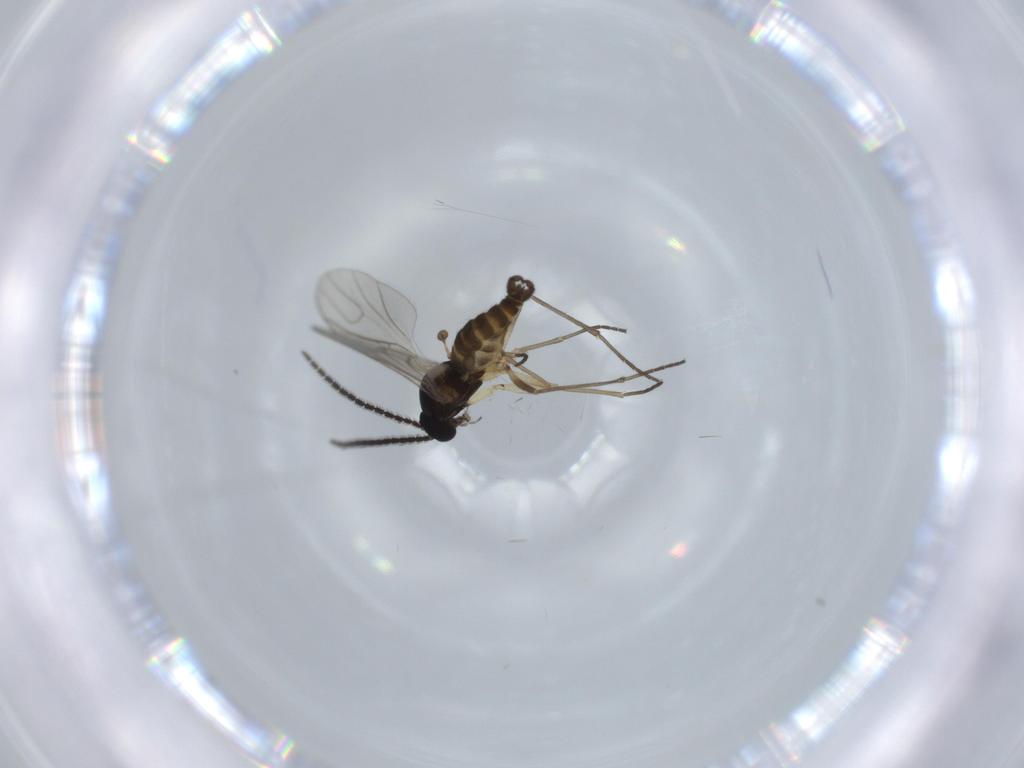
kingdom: Animalia
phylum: Arthropoda
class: Insecta
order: Diptera
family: Sciaridae
